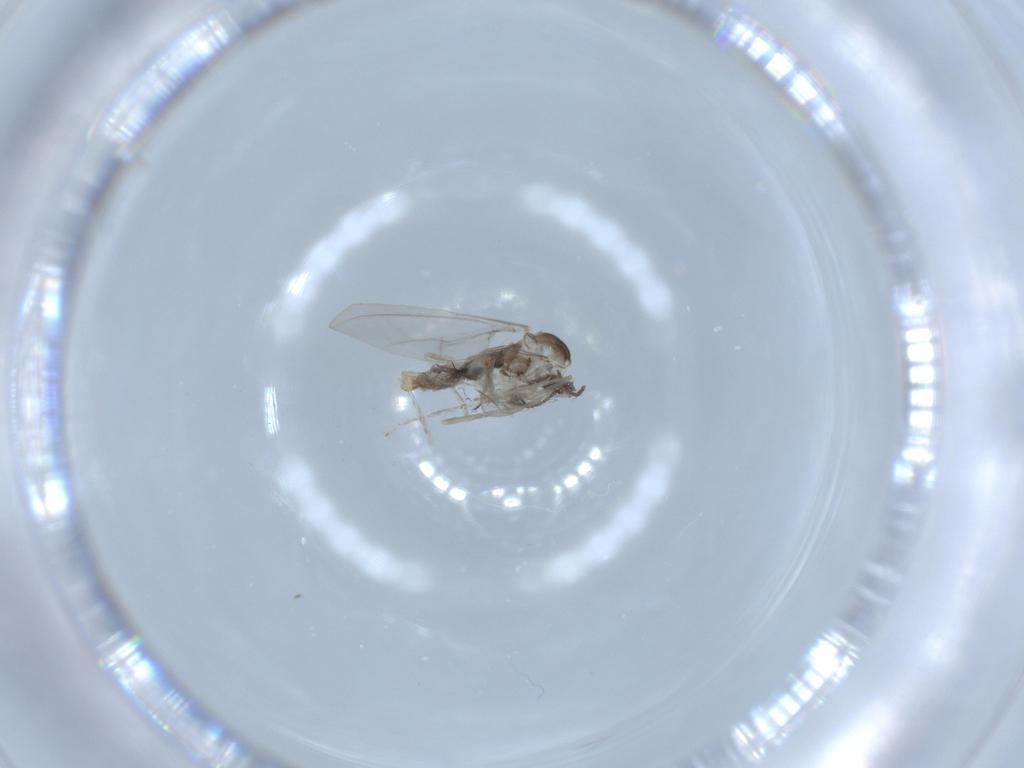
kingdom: Animalia
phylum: Arthropoda
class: Insecta
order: Diptera
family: Cecidomyiidae
